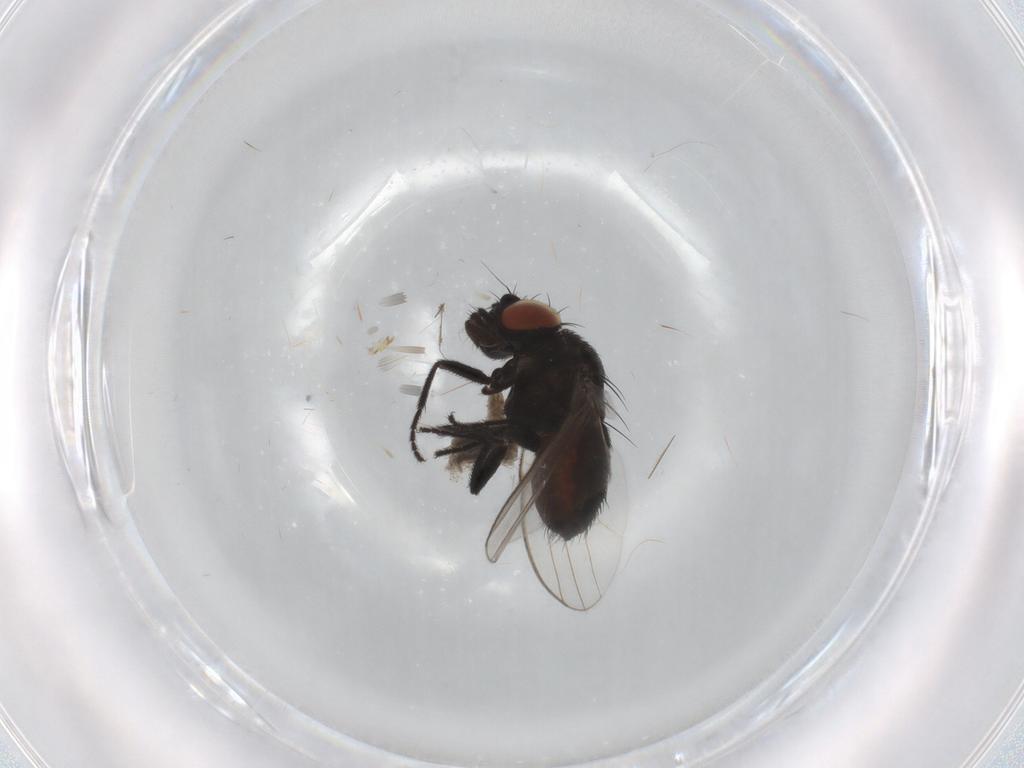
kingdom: Animalia
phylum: Arthropoda
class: Insecta
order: Diptera
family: Milichiidae
